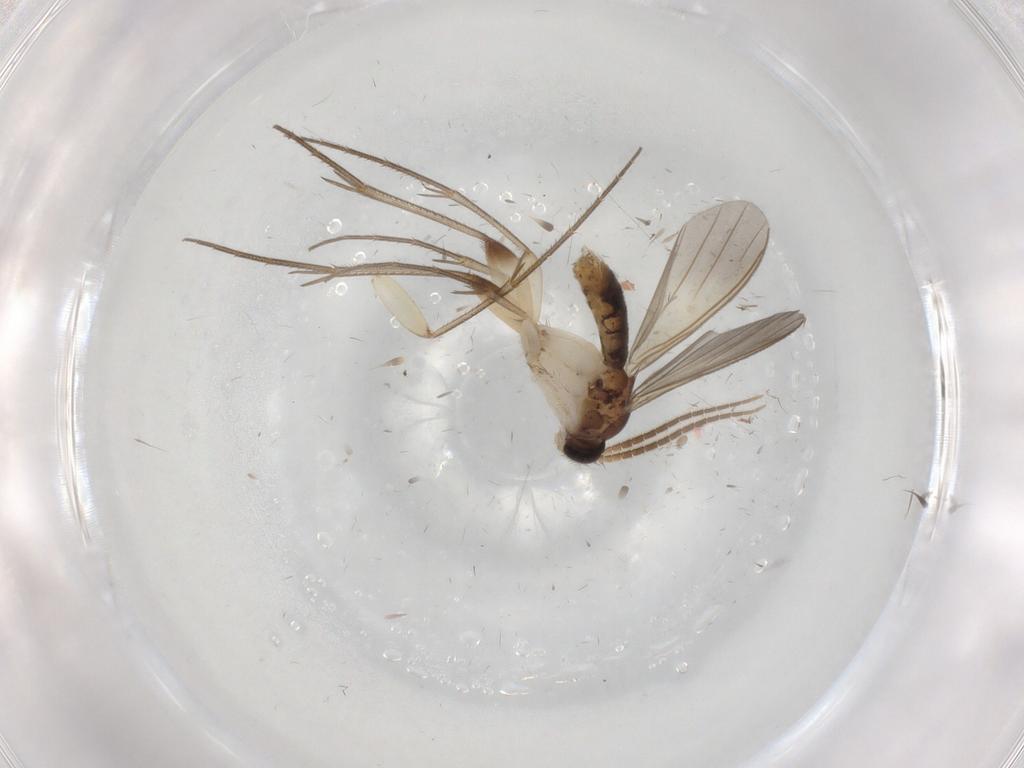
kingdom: Animalia
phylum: Arthropoda
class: Insecta
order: Diptera
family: Mycetophilidae
